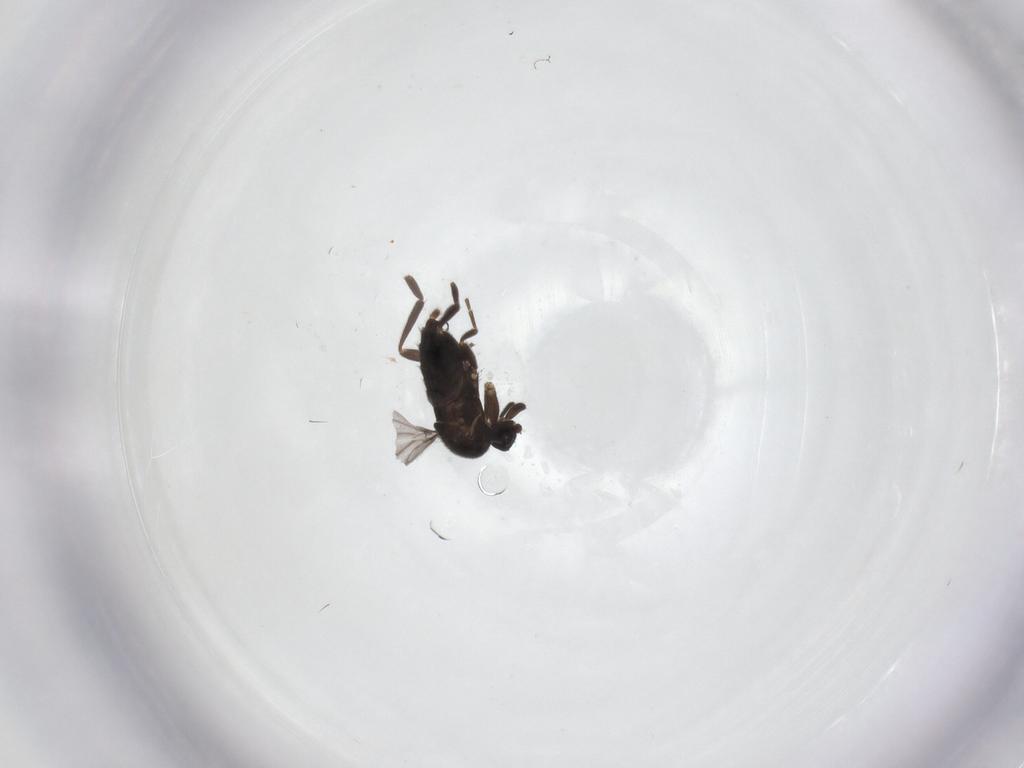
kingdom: Animalia
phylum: Arthropoda
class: Insecta
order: Diptera
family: Phoridae
